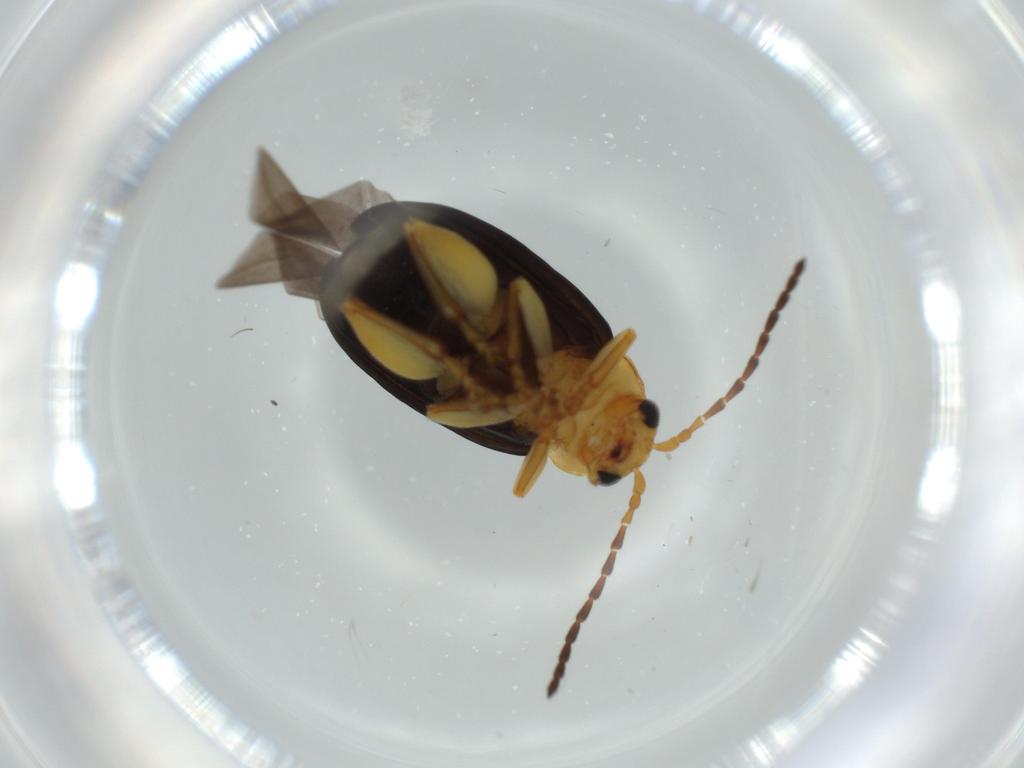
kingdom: Animalia
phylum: Arthropoda
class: Insecta
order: Coleoptera
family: Chrysomelidae
